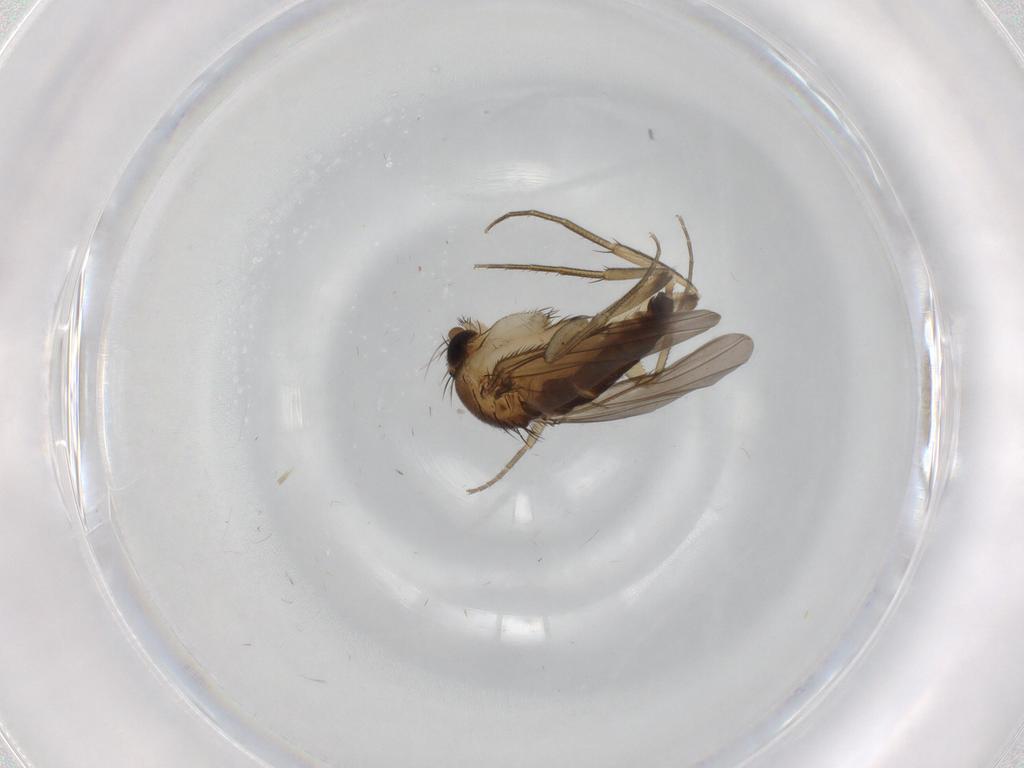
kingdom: Animalia
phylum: Arthropoda
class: Insecta
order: Diptera
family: Phoridae
